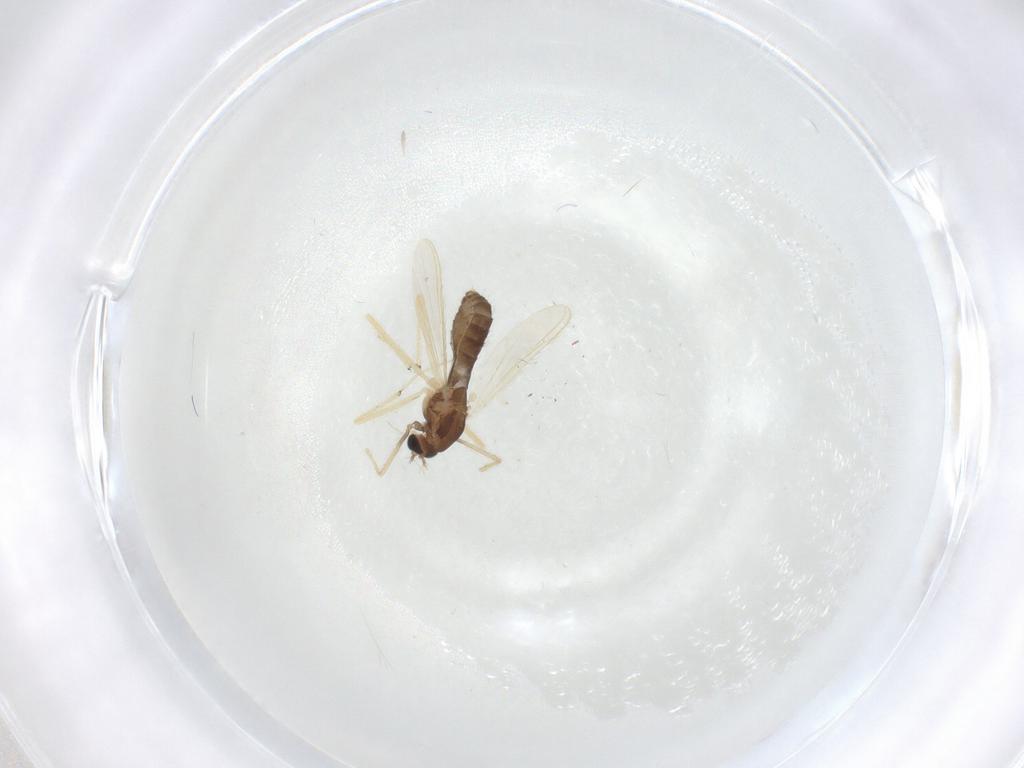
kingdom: Animalia
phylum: Arthropoda
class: Insecta
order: Diptera
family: Chironomidae
